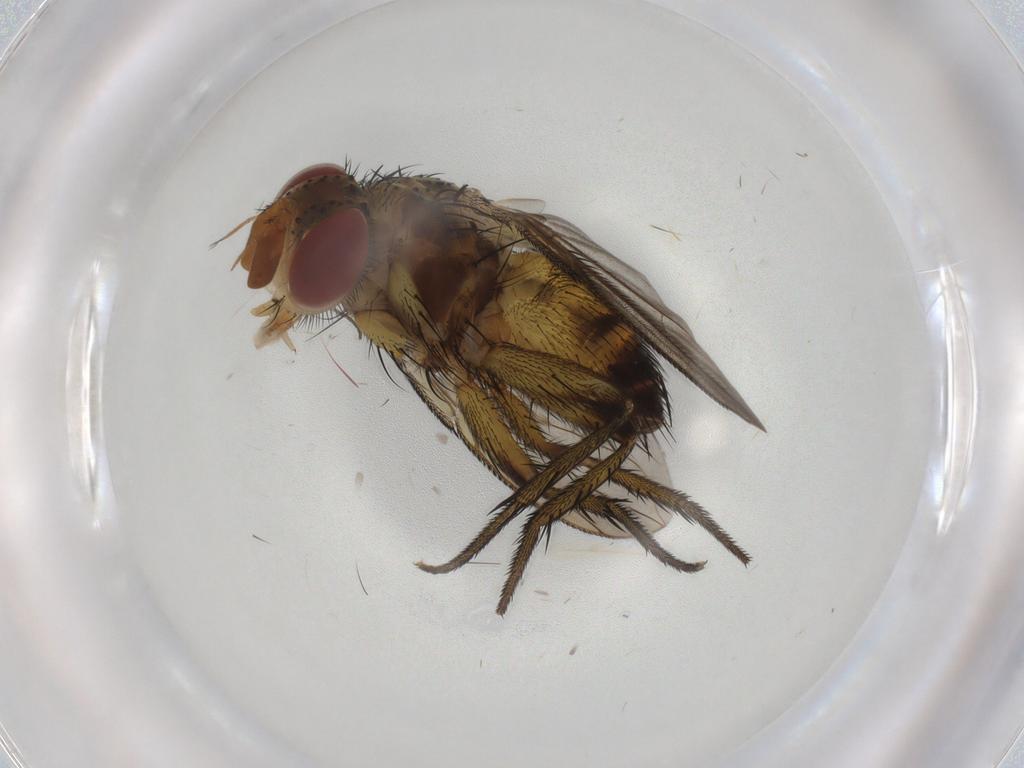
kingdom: Animalia
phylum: Arthropoda
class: Insecta
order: Diptera
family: Tachinidae
